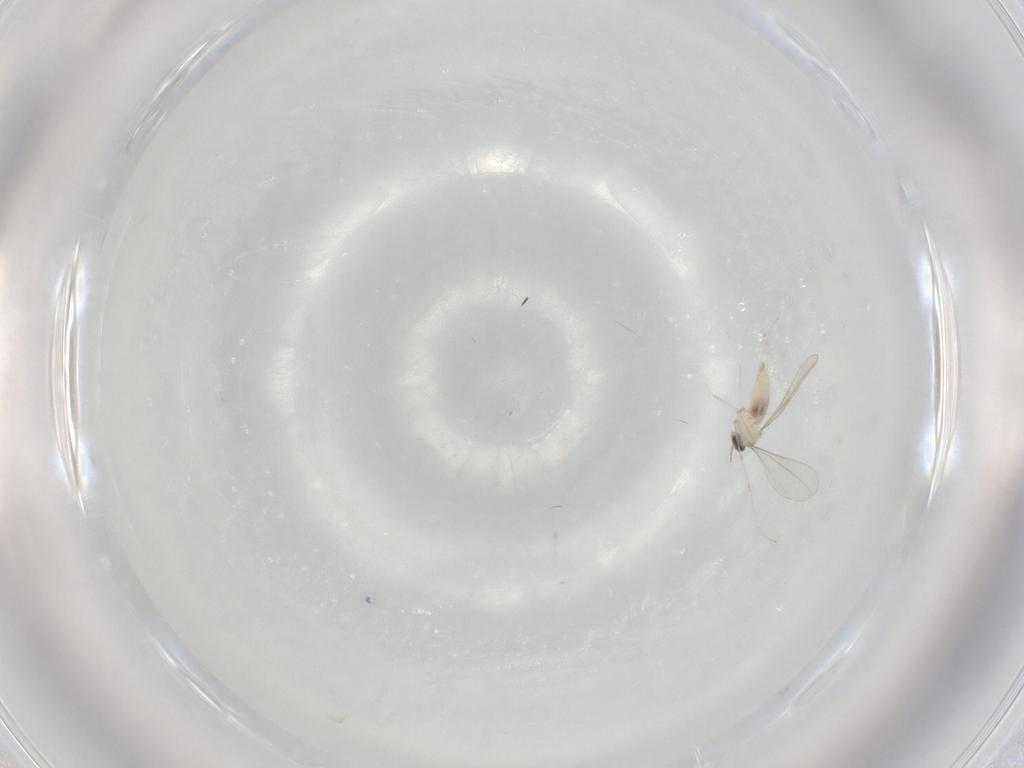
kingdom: Animalia
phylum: Arthropoda
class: Insecta
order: Diptera
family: Cecidomyiidae
